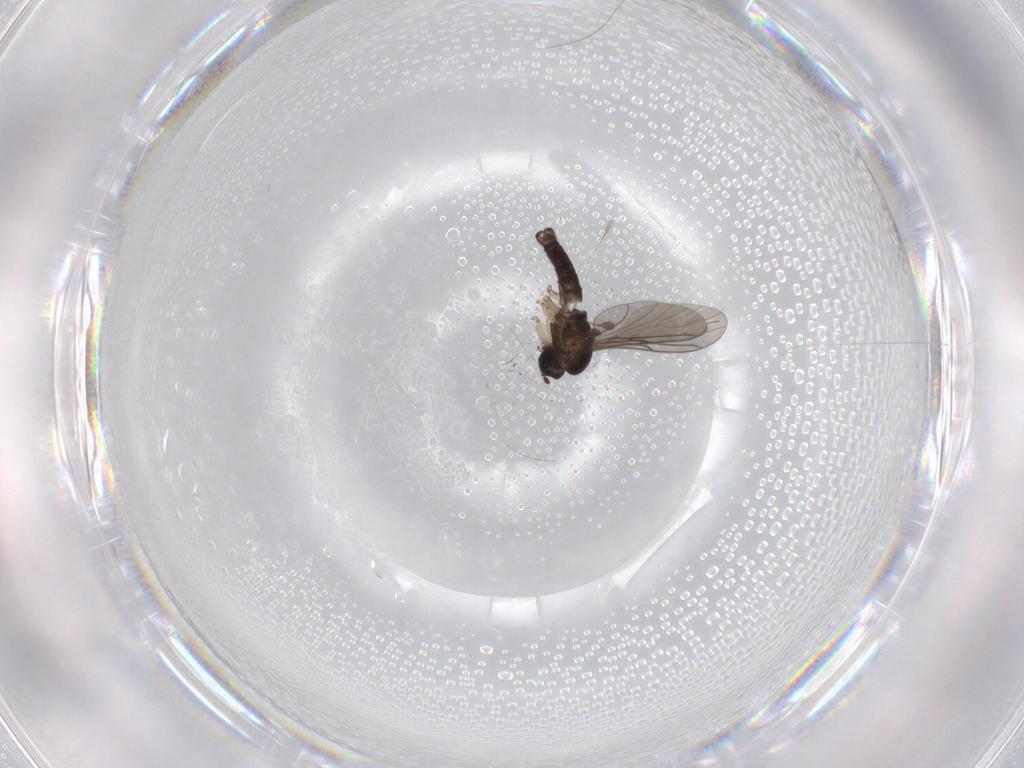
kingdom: Animalia
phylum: Arthropoda
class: Insecta
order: Diptera
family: Sciaridae
